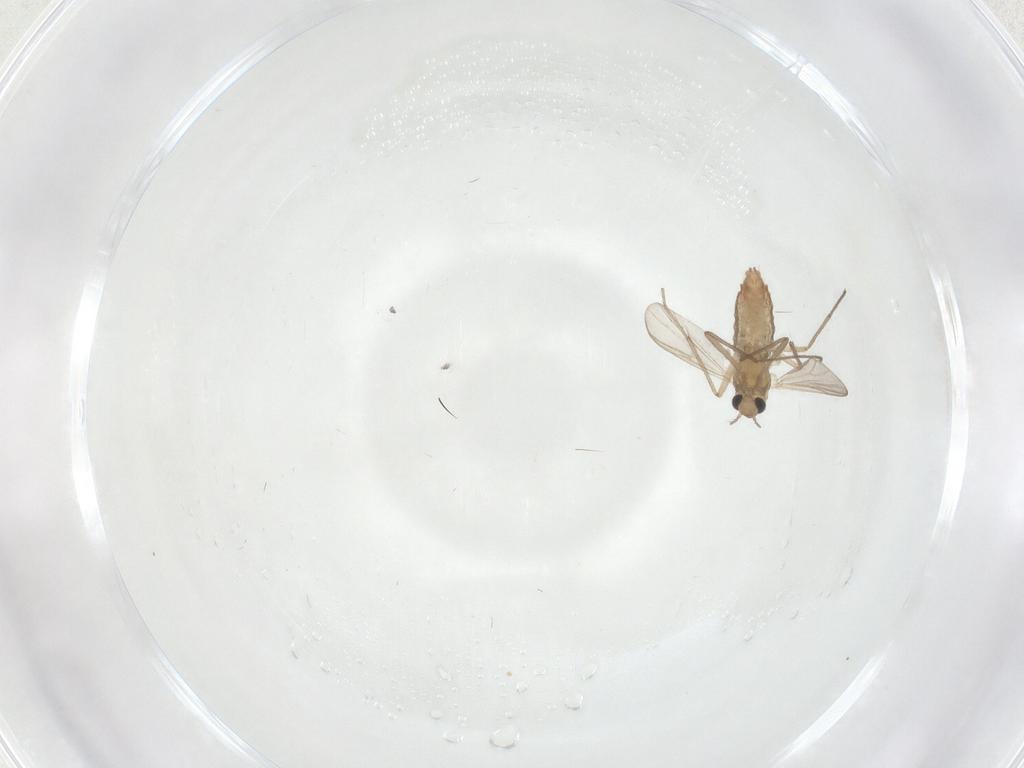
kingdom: Animalia
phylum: Arthropoda
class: Insecta
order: Diptera
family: Chironomidae
